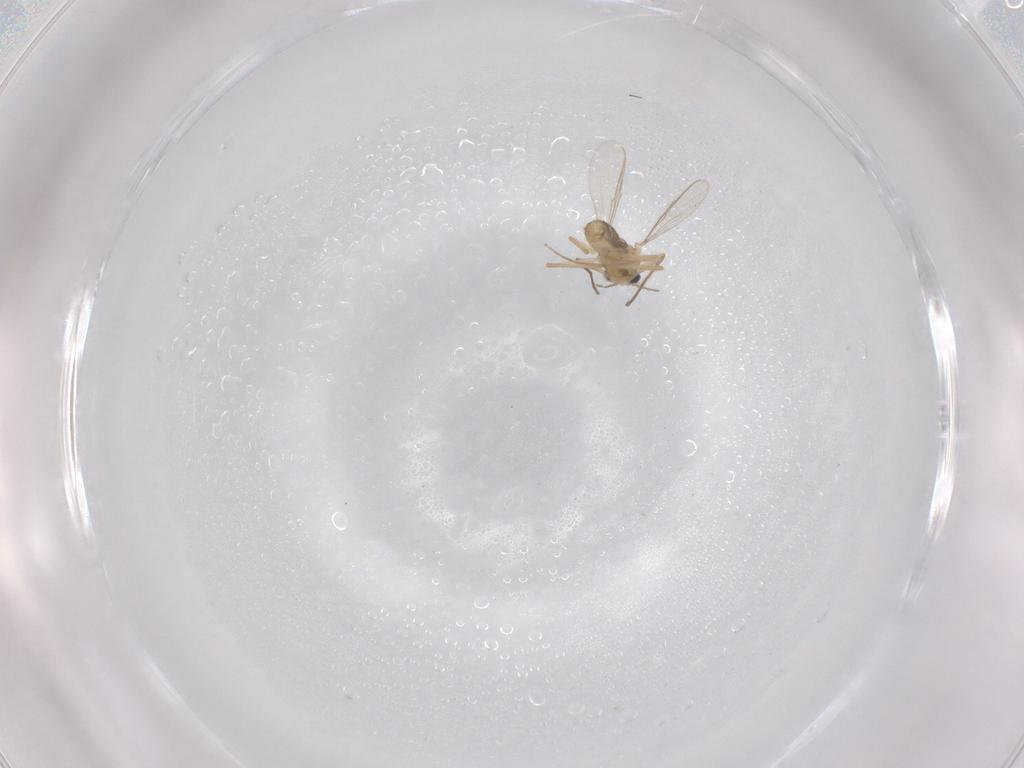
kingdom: Animalia
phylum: Arthropoda
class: Insecta
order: Diptera
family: Chironomidae
